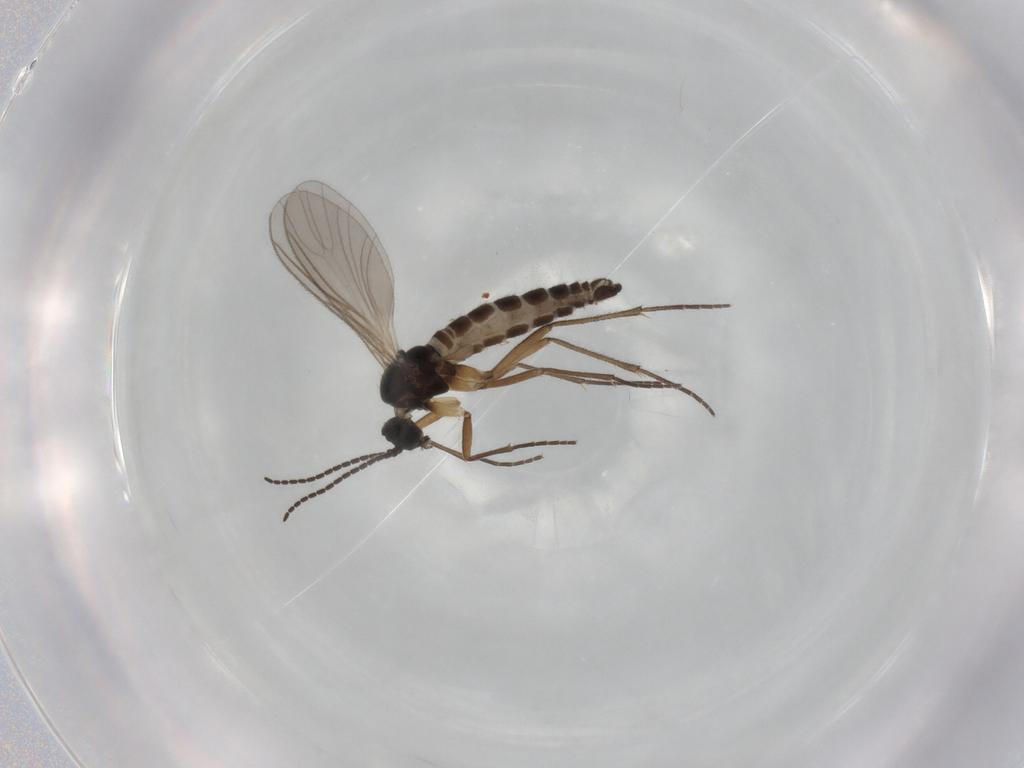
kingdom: Animalia
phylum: Arthropoda
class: Insecta
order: Diptera
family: Sciaridae
